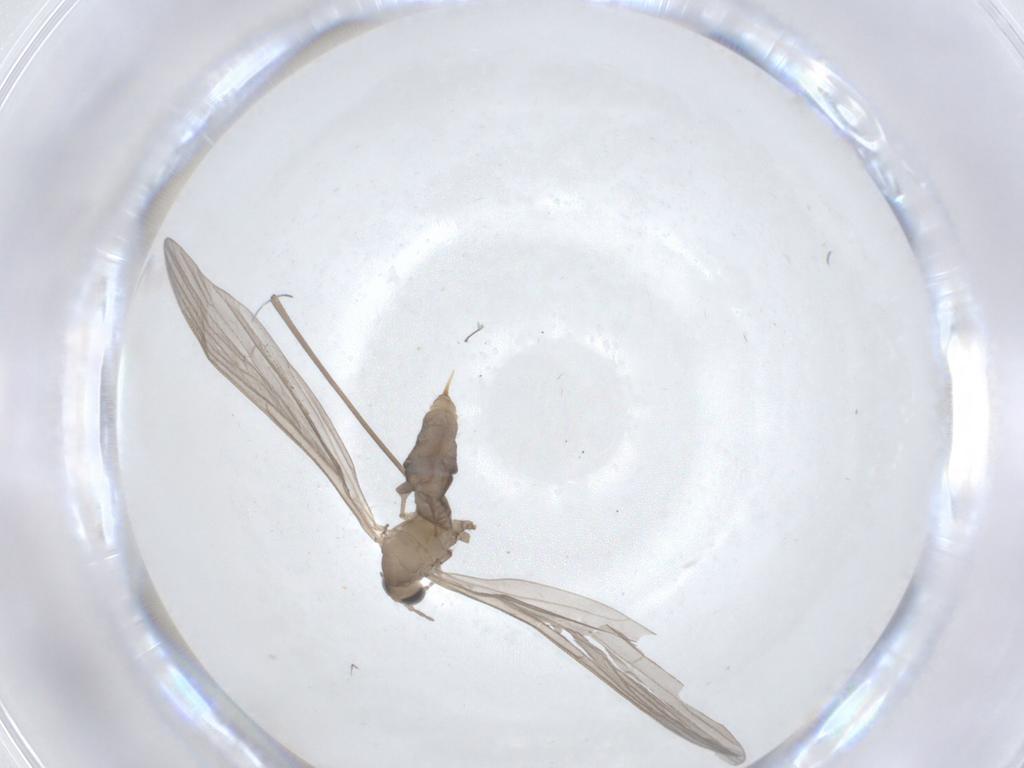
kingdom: Animalia
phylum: Arthropoda
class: Insecta
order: Diptera
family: Limoniidae
